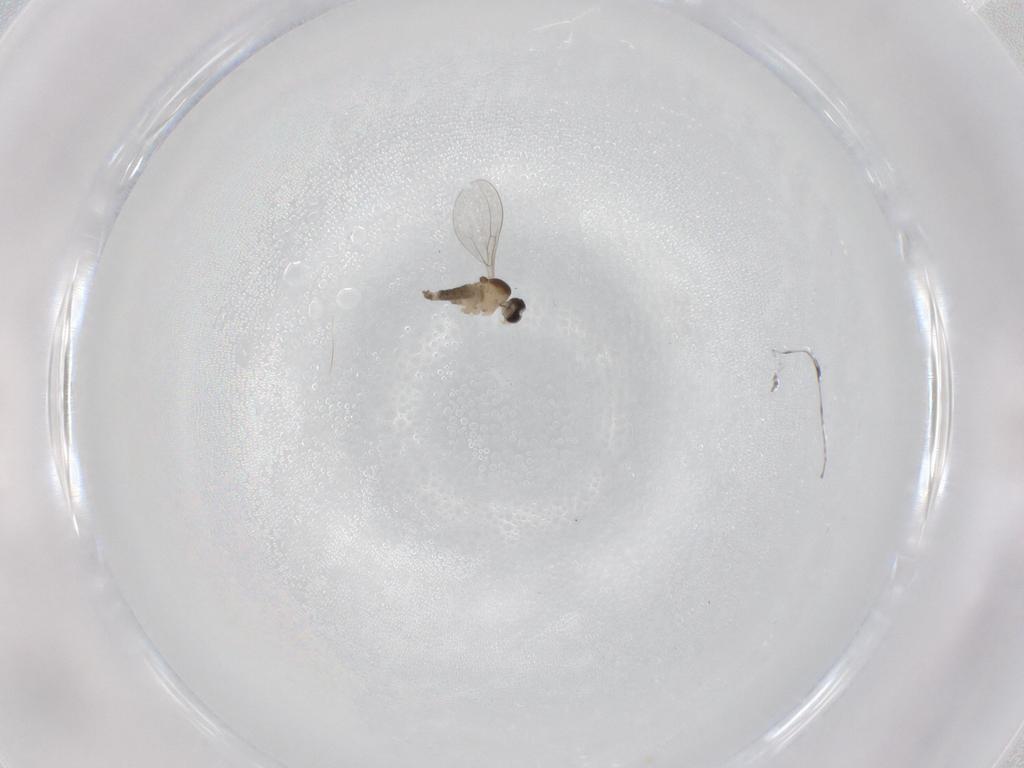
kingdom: Animalia
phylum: Arthropoda
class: Insecta
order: Diptera
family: Cecidomyiidae
